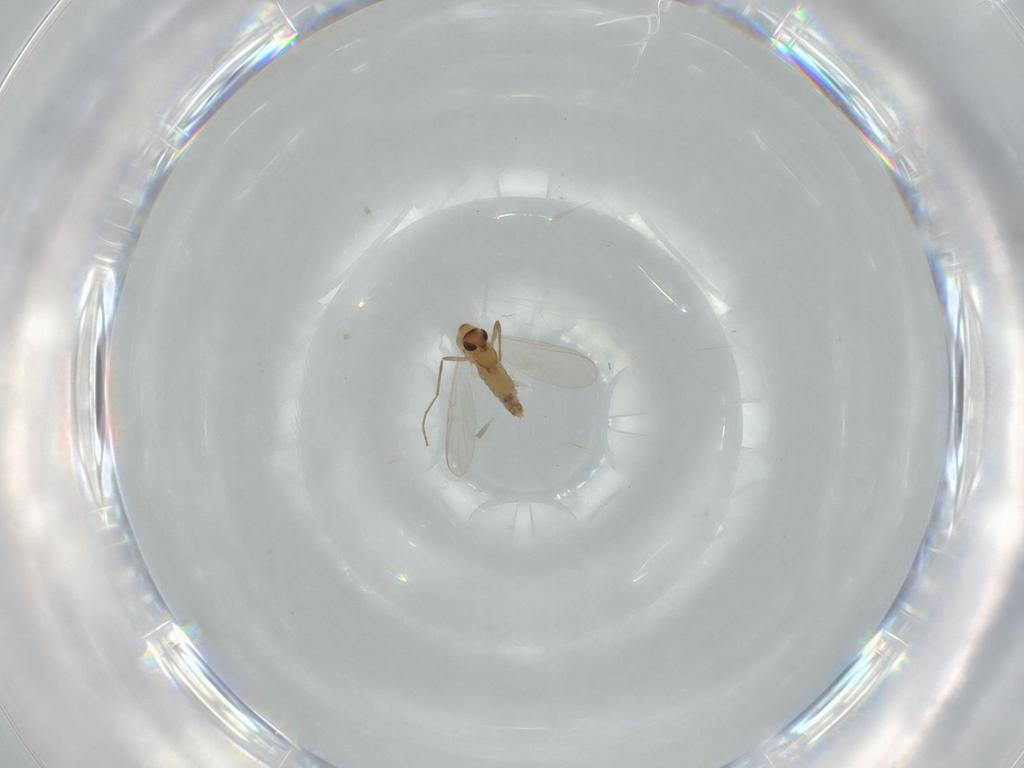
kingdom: Animalia
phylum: Arthropoda
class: Insecta
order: Diptera
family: Chironomidae
